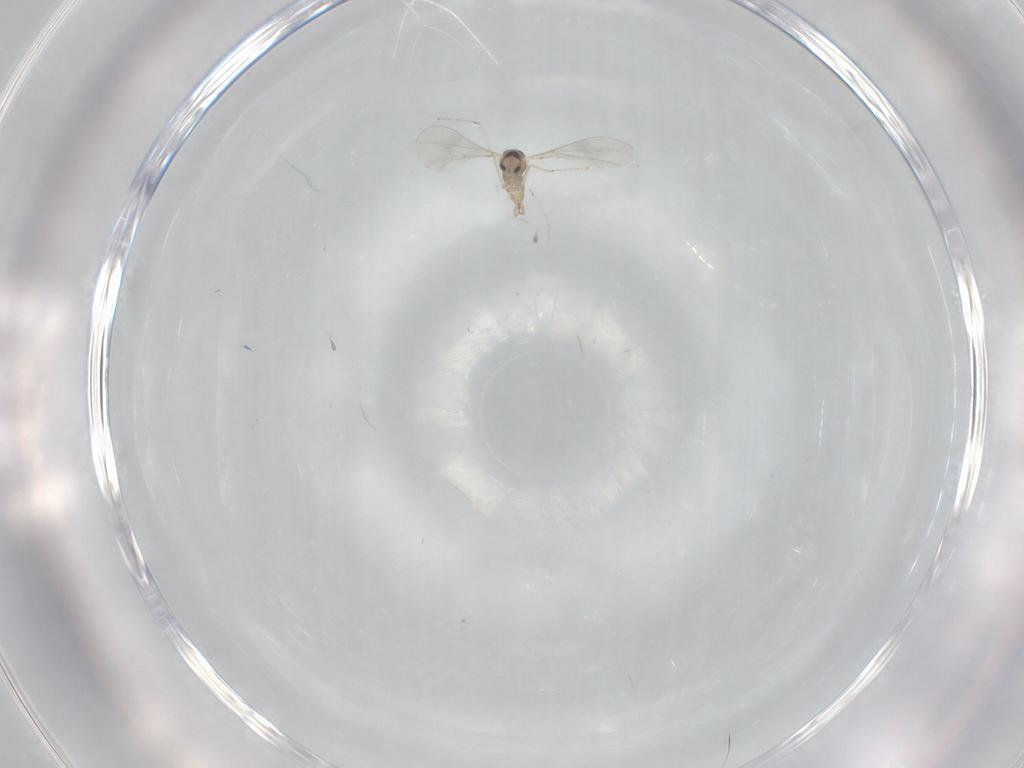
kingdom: Animalia
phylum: Arthropoda
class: Insecta
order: Diptera
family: Cecidomyiidae
